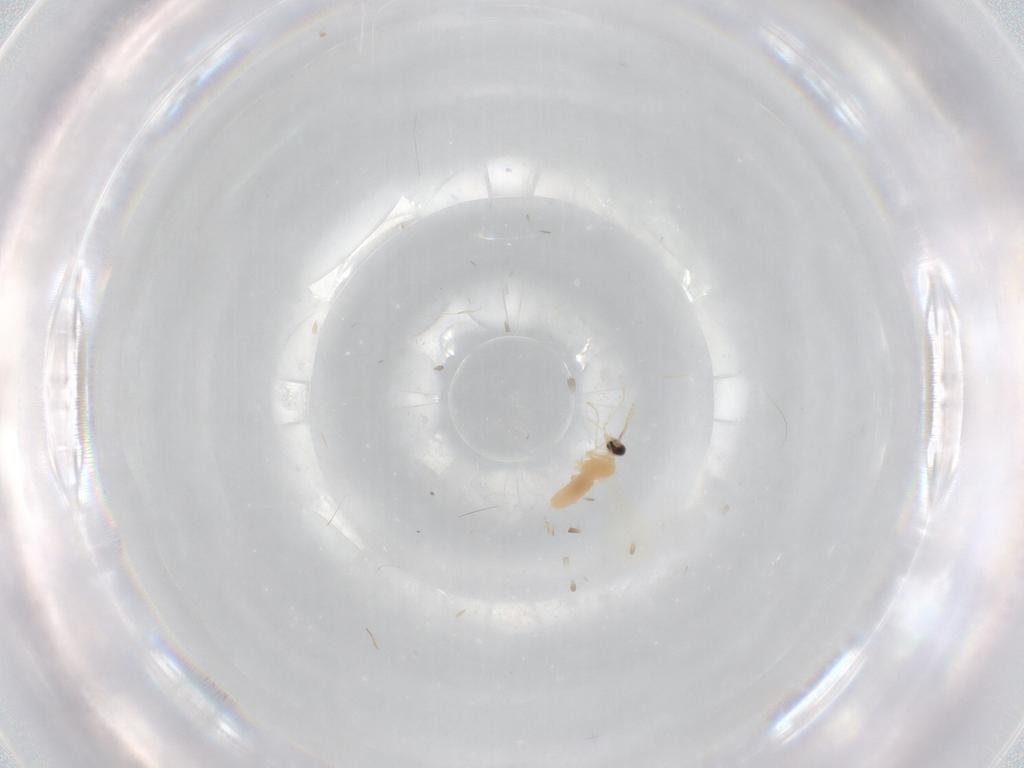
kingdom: Animalia
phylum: Arthropoda
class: Insecta
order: Diptera
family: Cecidomyiidae
